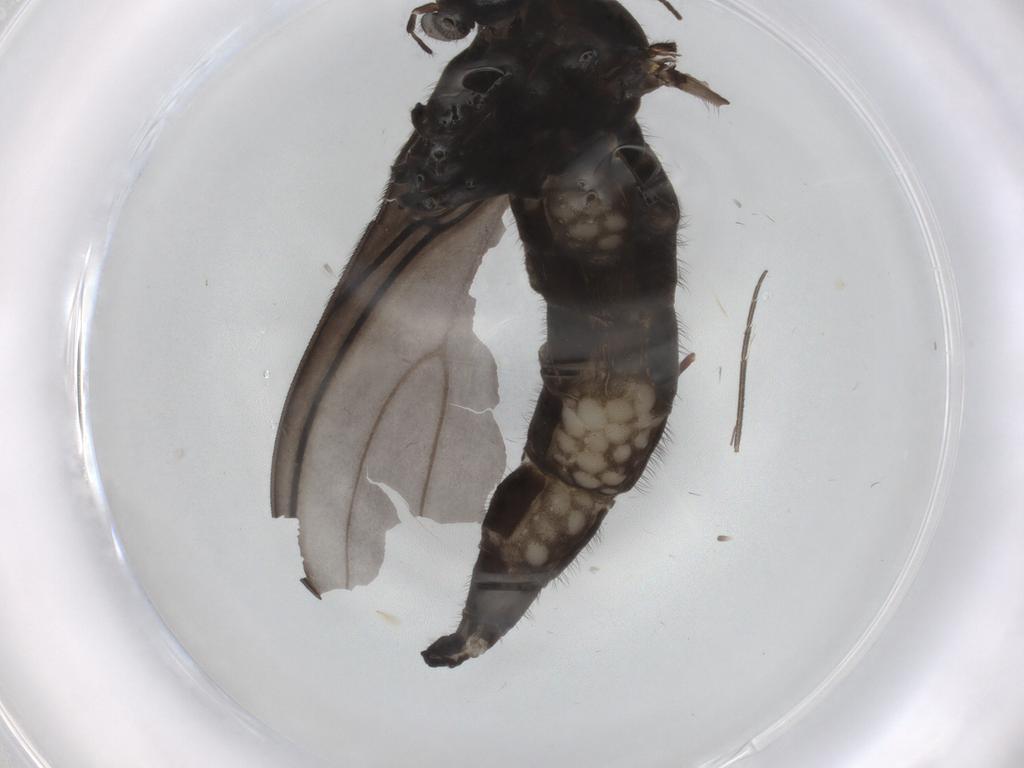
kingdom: Animalia
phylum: Arthropoda
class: Insecta
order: Diptera
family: Sciaridae
